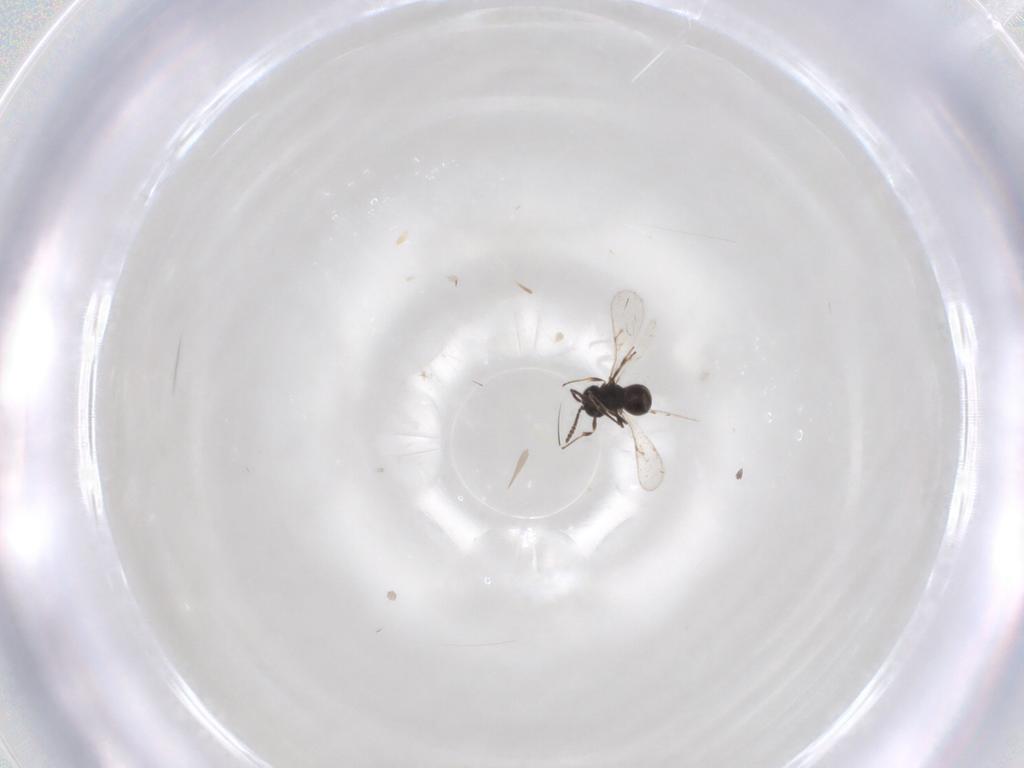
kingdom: Animalia
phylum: Arthropoda
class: Insecta
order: Hymenoptera
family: Scelionidae
